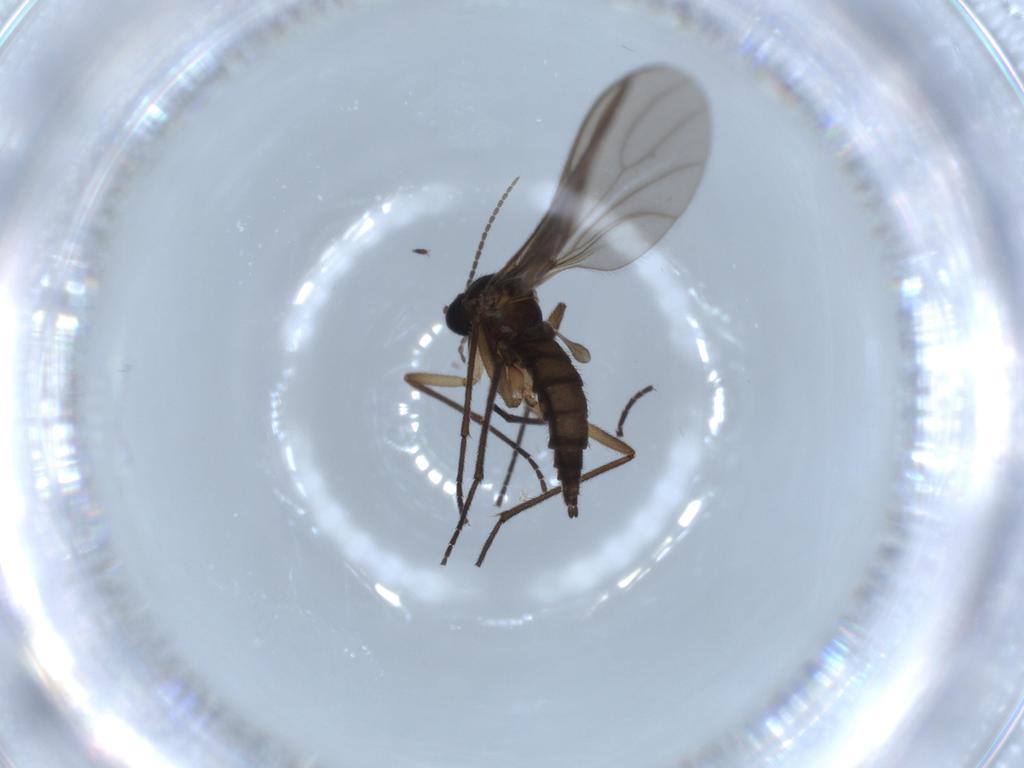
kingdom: Animalia
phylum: Arthropoda
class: Insecta
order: Diptera
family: Sciaridae
